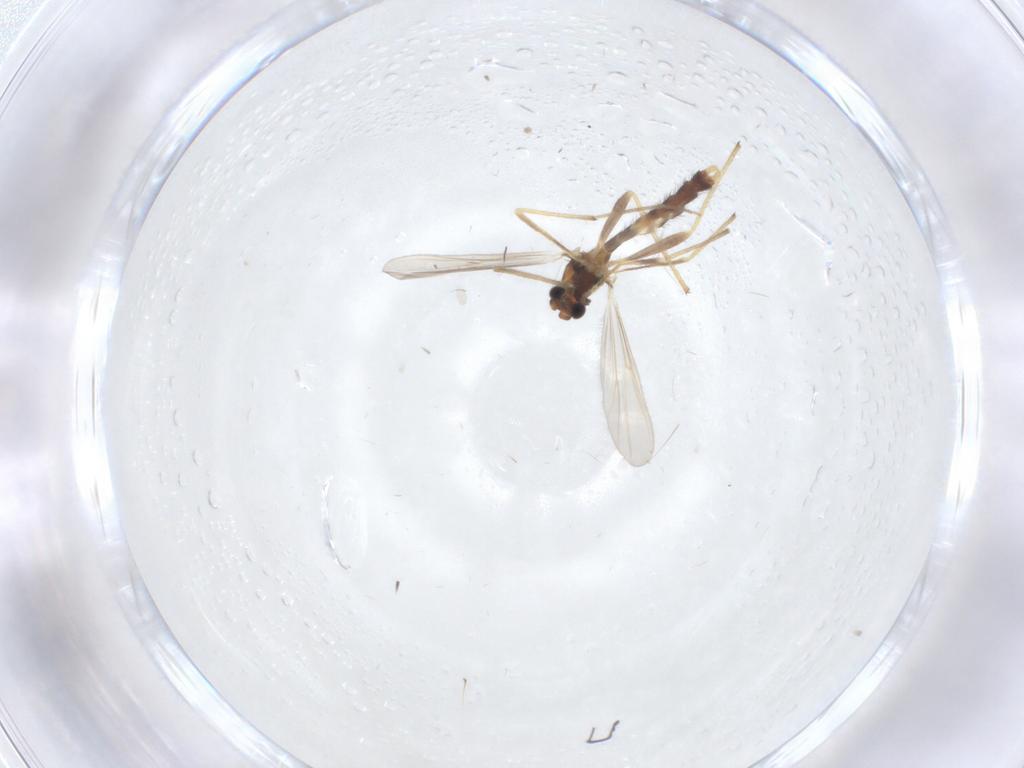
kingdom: Animalia
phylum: Arthropoda
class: Insecta
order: Diptera
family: Chironomidae
